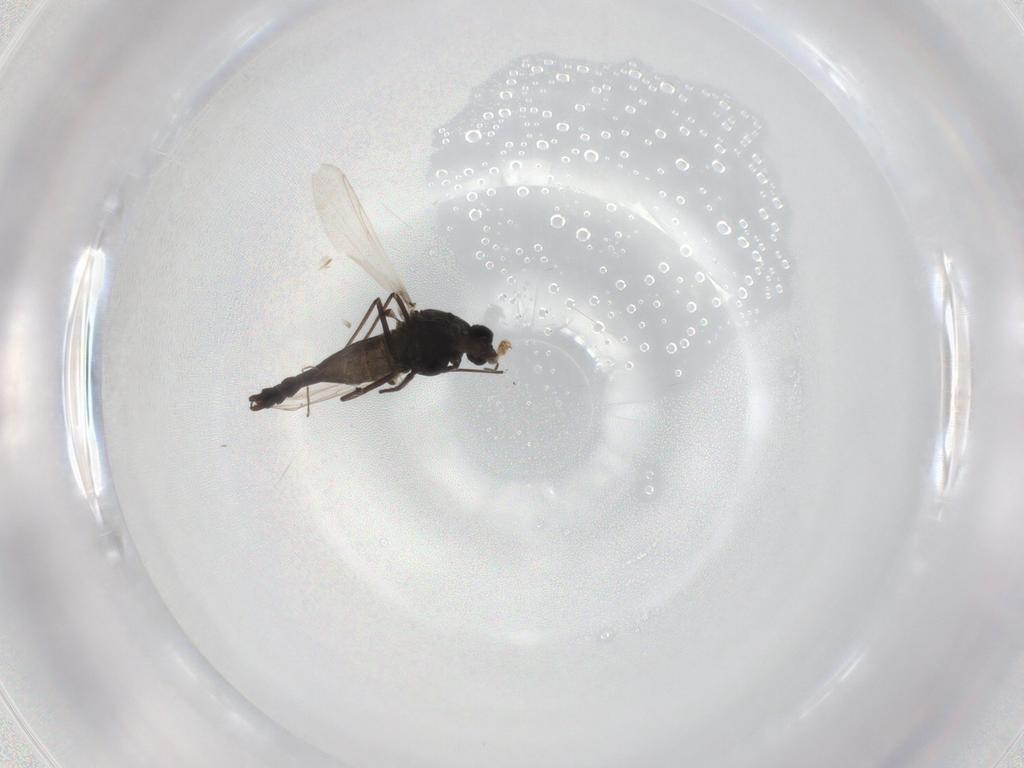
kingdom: Animalia
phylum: Arthropoda
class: Insecta
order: Diptera
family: Chironomidae
